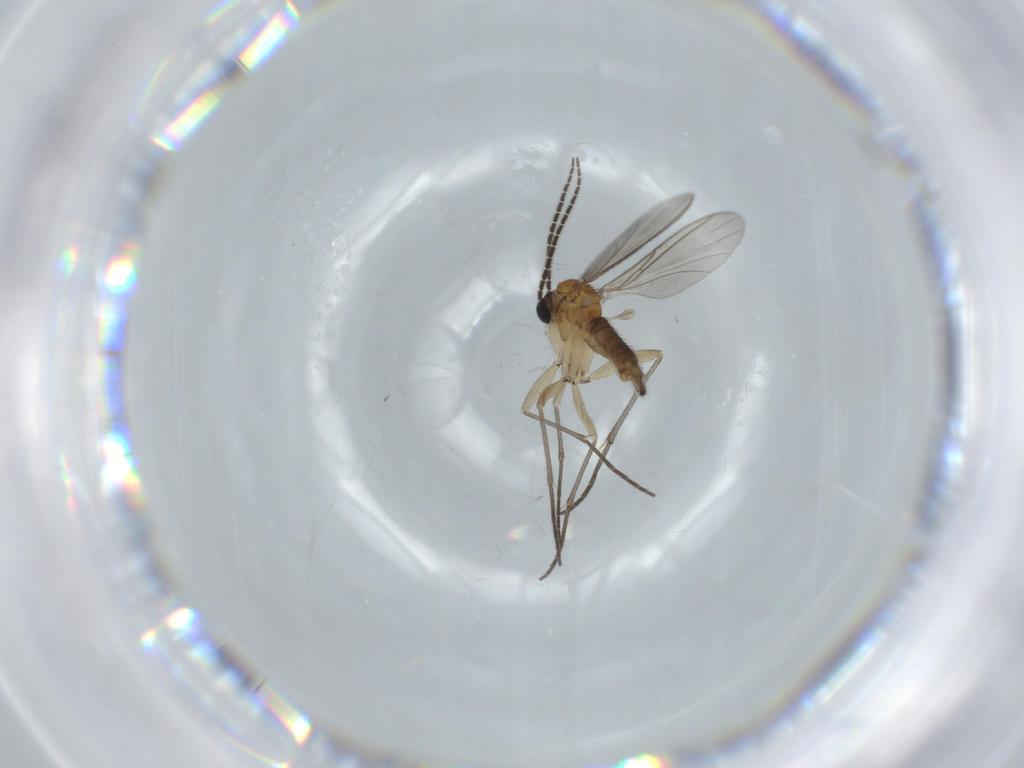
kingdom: Animalia
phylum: Arthropoda
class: Insecta
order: Diptera
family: Sciaridae
